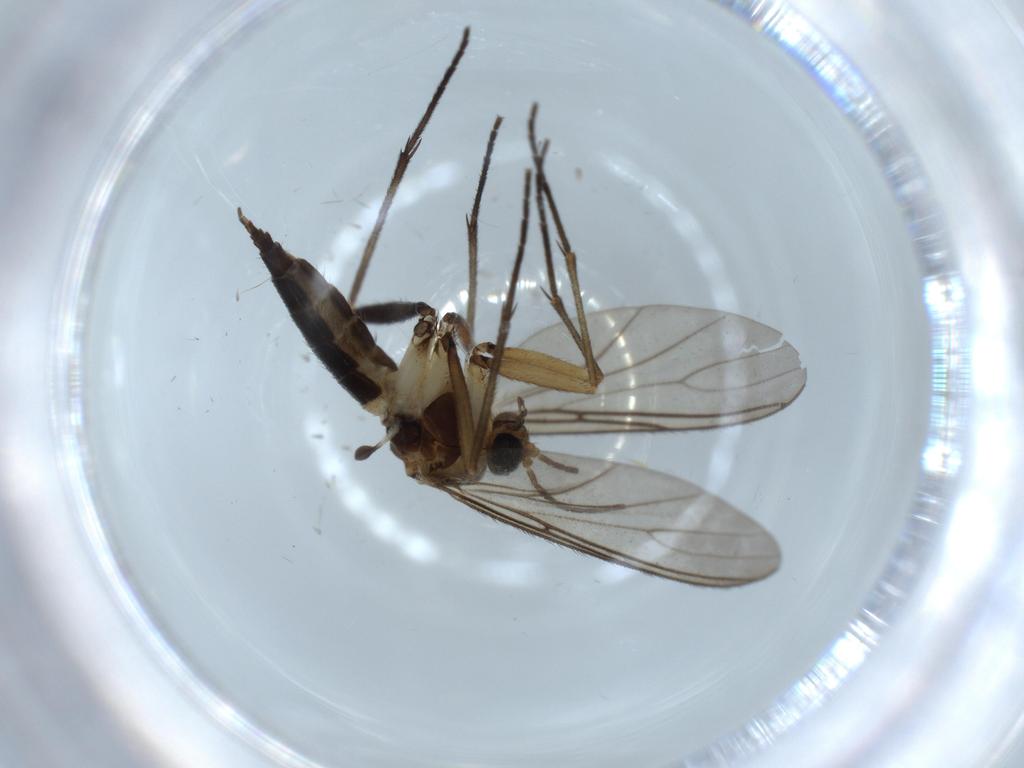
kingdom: Animalia
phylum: Arthropoda
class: Insecta
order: Diptera
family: Sciaridae
